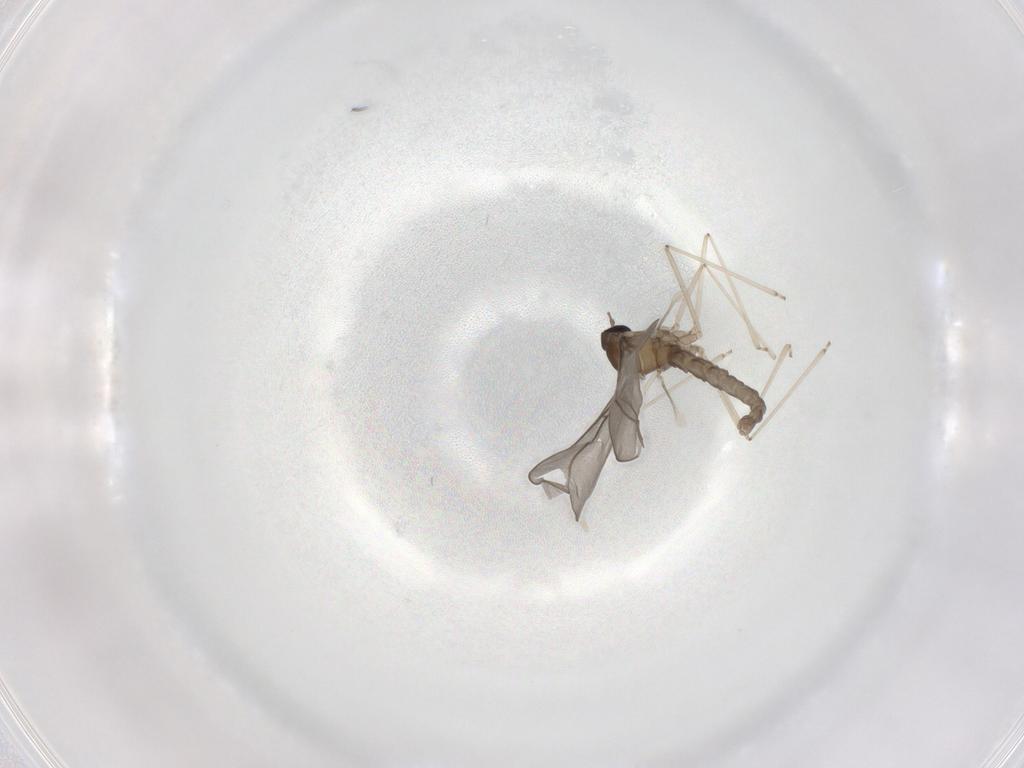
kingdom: Animalia
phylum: Arthropoda
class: Insecta
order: Diptera
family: Cecidomyiidae
